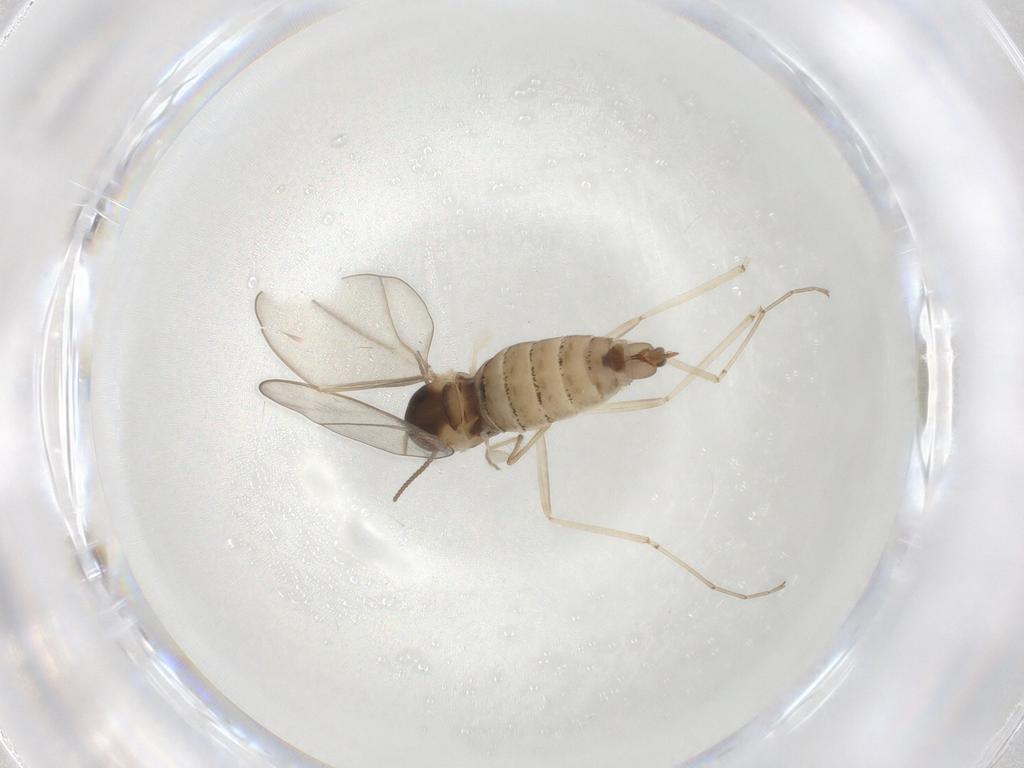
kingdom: Animalia
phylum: Arthropoda
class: Insecta
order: Diptera
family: Cecidomyiidae
